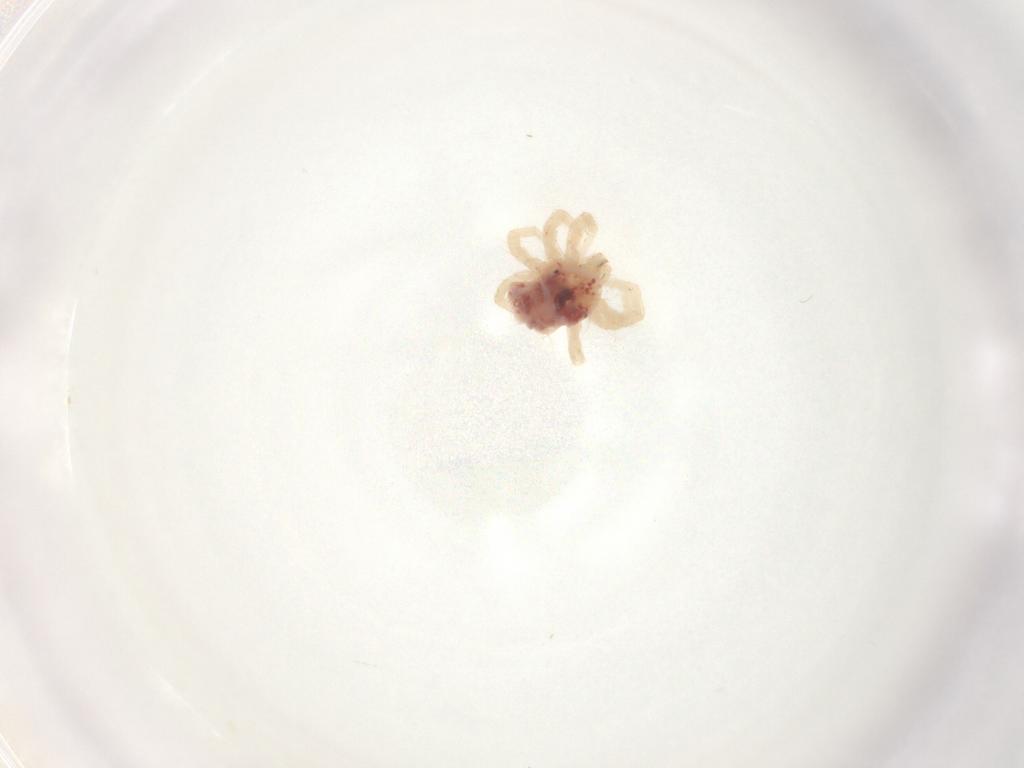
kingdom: Animalia
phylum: Arthropoda
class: Arachnida
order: Trombidiformes
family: Anystidae
